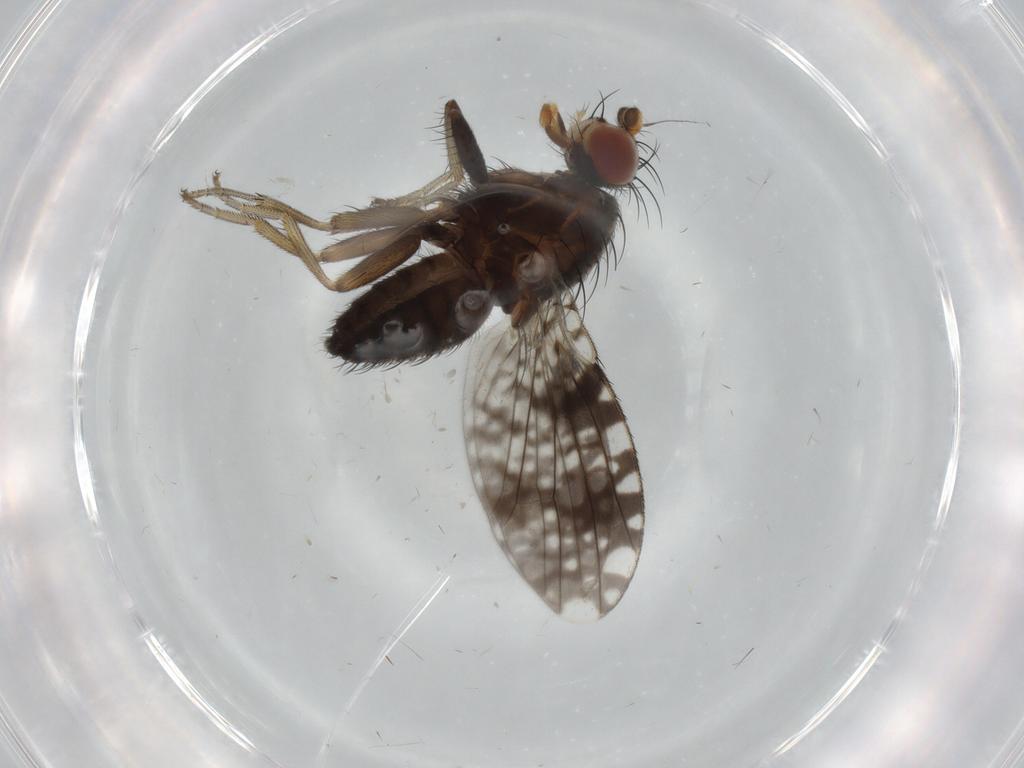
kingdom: Animalia
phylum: Arthropoda
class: Insecta
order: Diptera
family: Tephritidae
